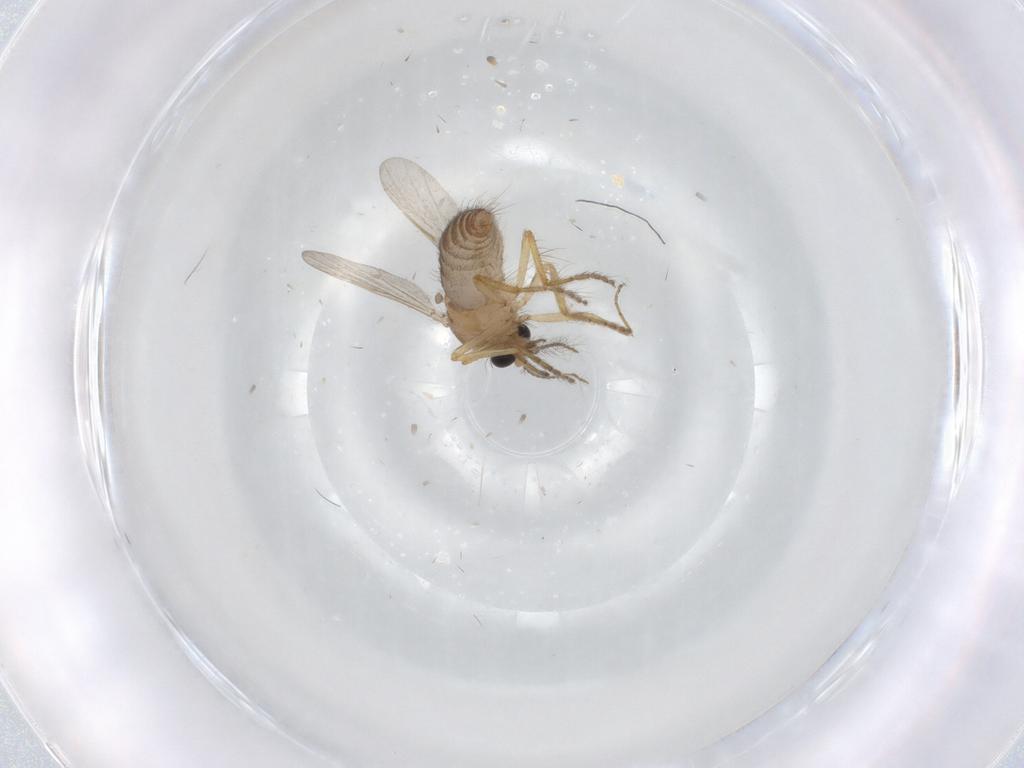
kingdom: Animalia
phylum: Arthropoda
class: Insecta
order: Diptera
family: Ceratopogonidae
